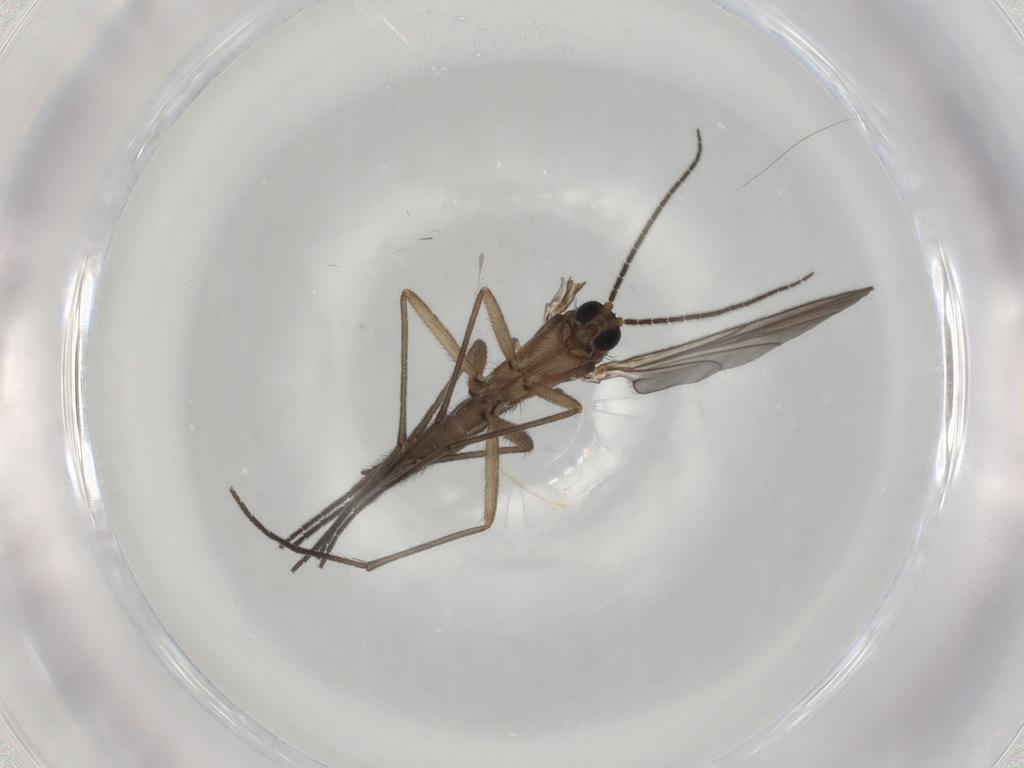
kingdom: Animalia
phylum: Arthropoda
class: Insecta
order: Diptera
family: Sciaridae
